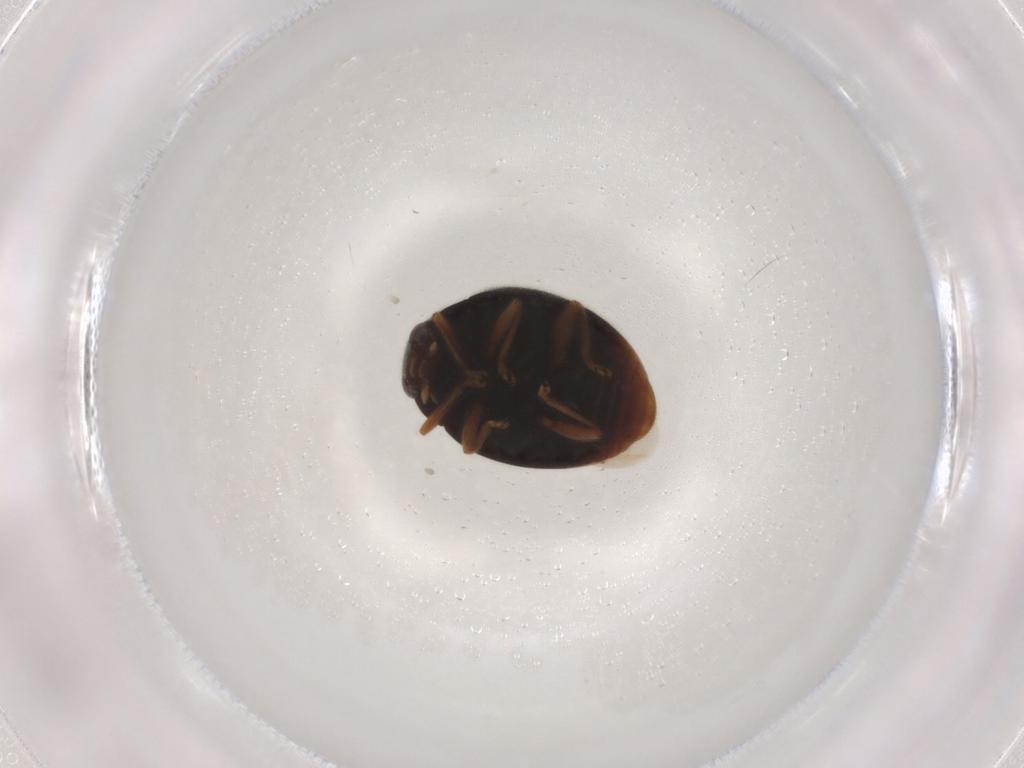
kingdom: Animalia
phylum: Arthropoda
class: Insecta
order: Coleoptera
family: Coccinellidae
